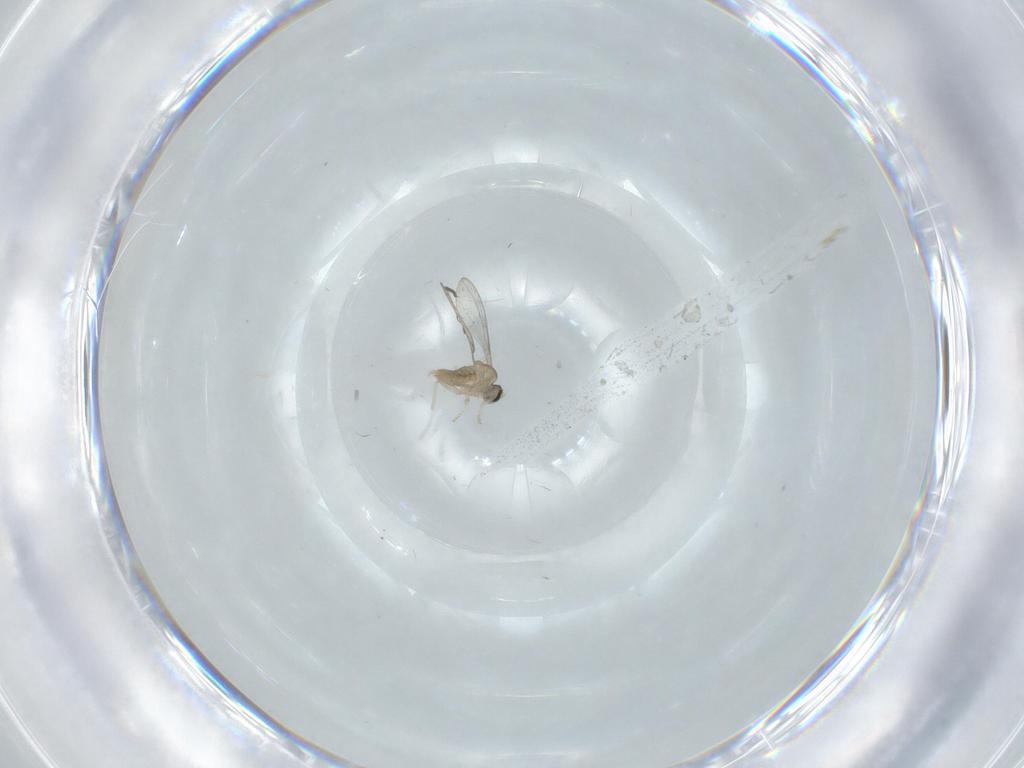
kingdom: Animalia
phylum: Arthropoda
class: Insecta
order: Diptera
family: Cecidomyiidae
